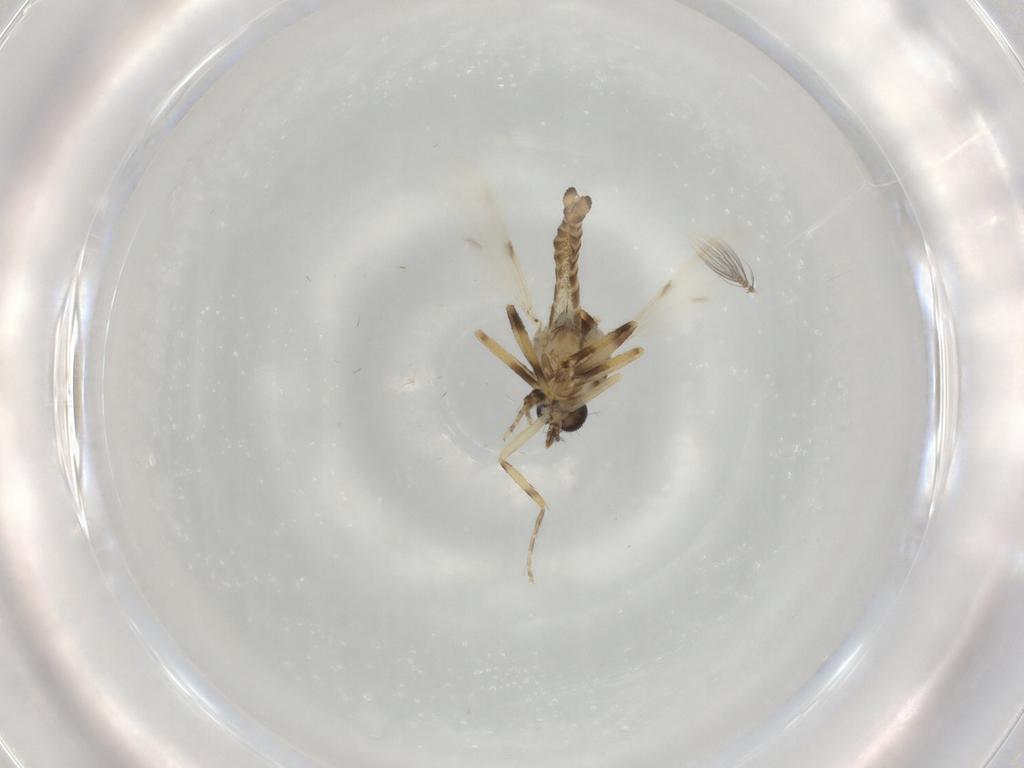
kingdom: Animalia
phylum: Arthropoda
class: Insecta
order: Diptera
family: Ceratopogonidae
